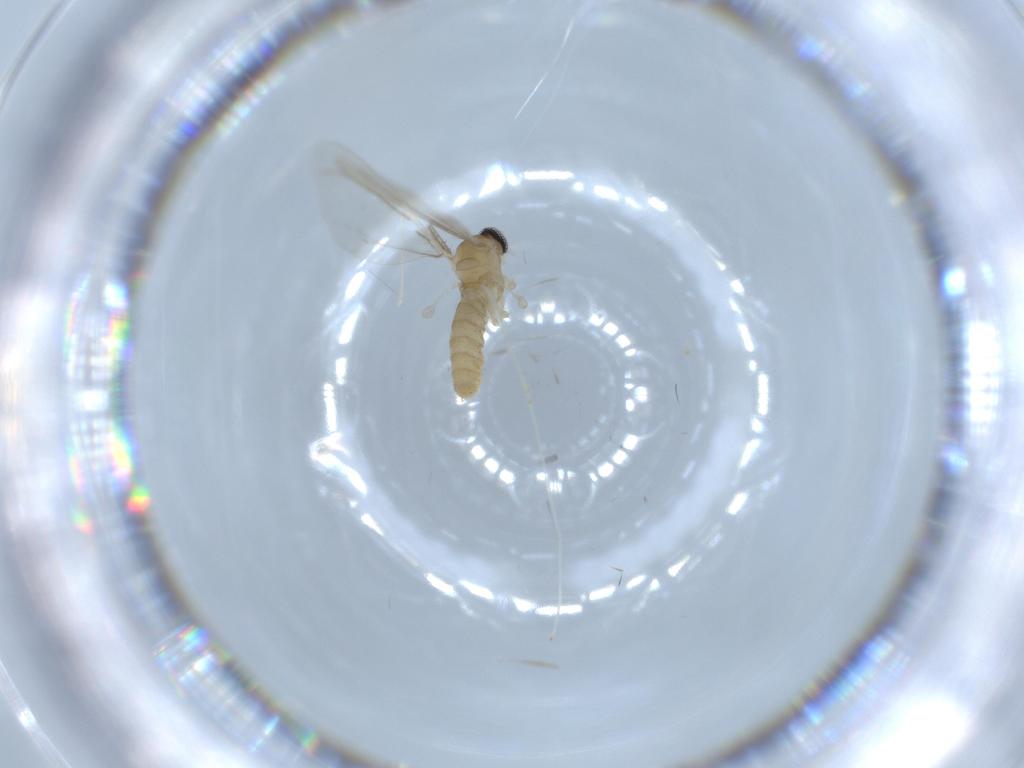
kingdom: Animalia
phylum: Arthropoda
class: Insecta
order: Diptera
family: Cecidomyiidae
